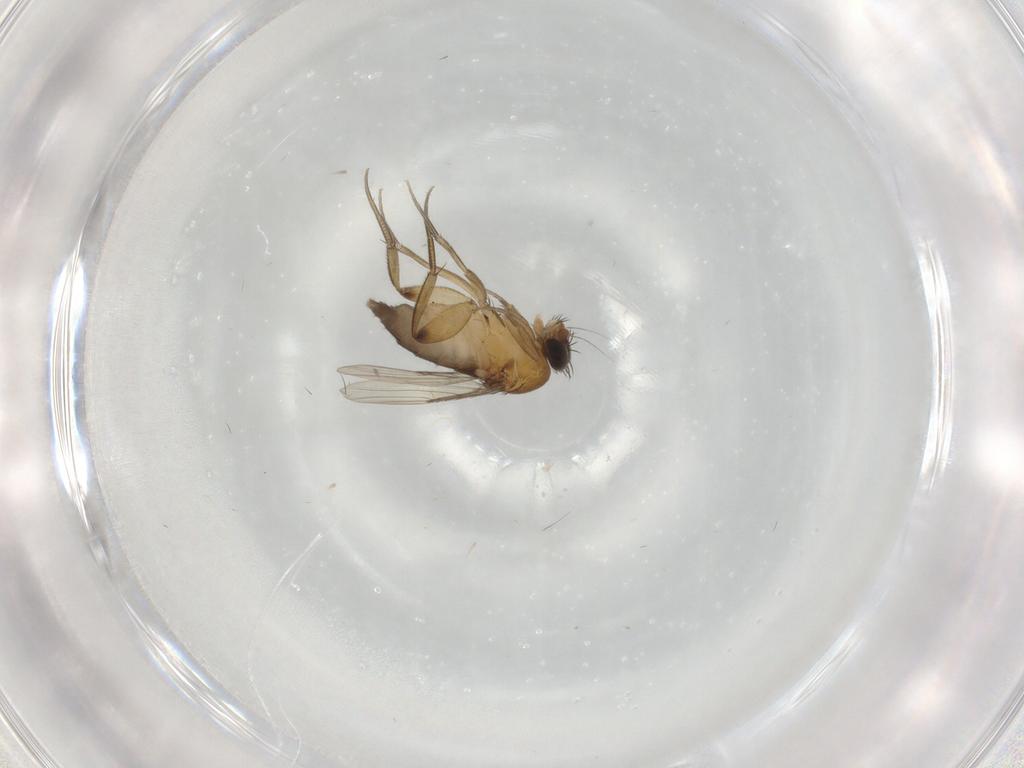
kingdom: Animalia
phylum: Arthropoda
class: Insecta
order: Diptera
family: Phoridae
